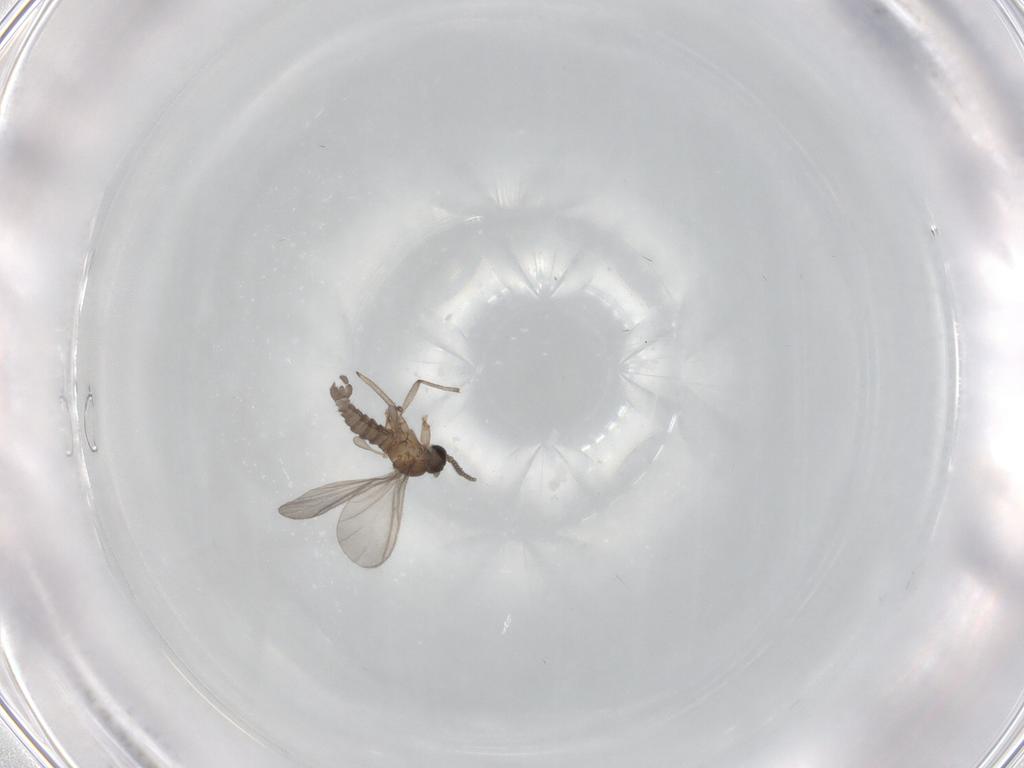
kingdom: Animalia
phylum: Arthropoda
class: Insecta
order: Diptera
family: Sciaridae
